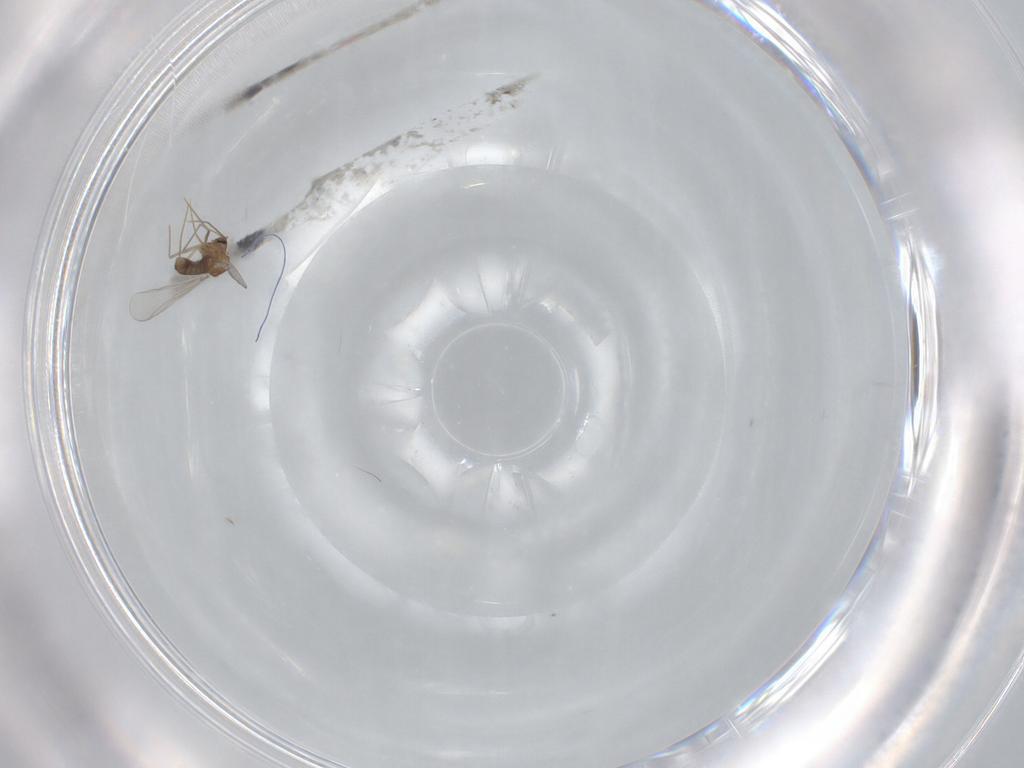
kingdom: Animalia
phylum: Arthropoda
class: Insecta
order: Diptera
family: Chironomidae
